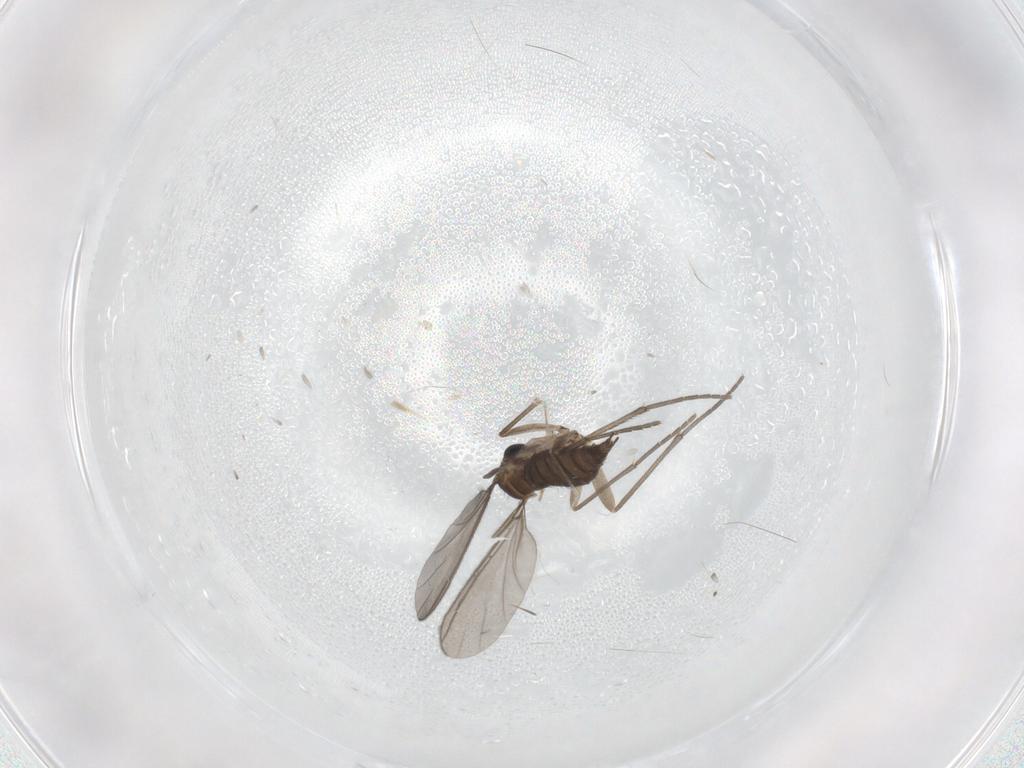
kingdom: Animalia
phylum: Arthropoda
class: Insecta
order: Diptera
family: Sciaridae
